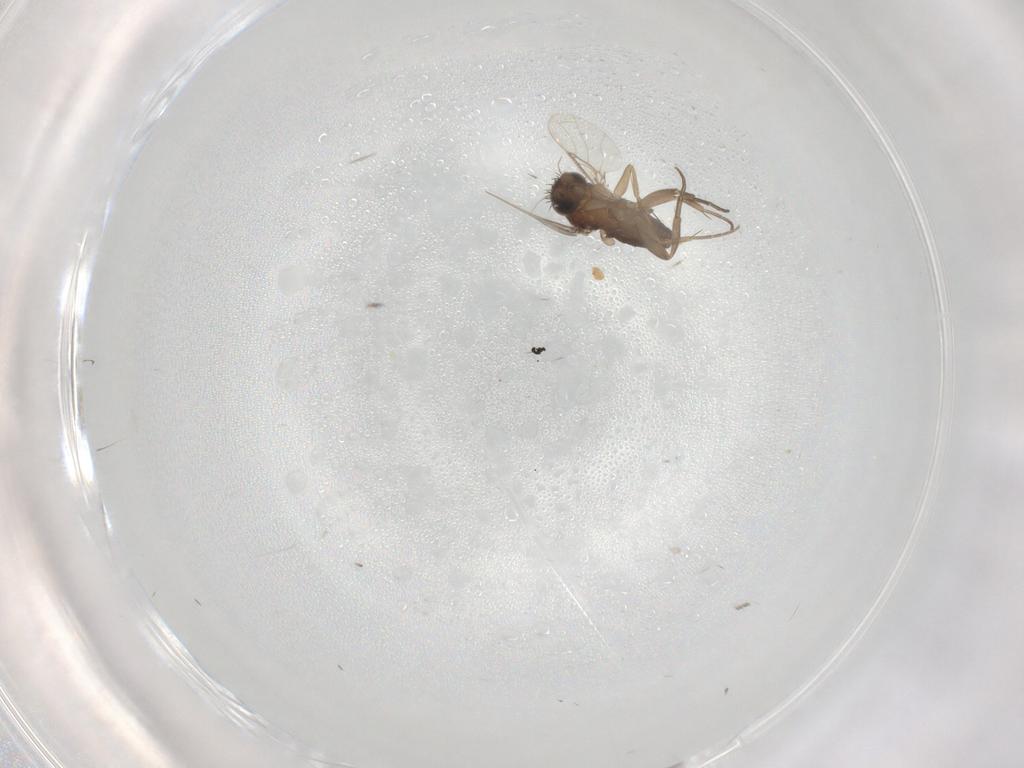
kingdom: Animalia
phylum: Arthropoda
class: Insecta
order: Diptera
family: Phoridae
